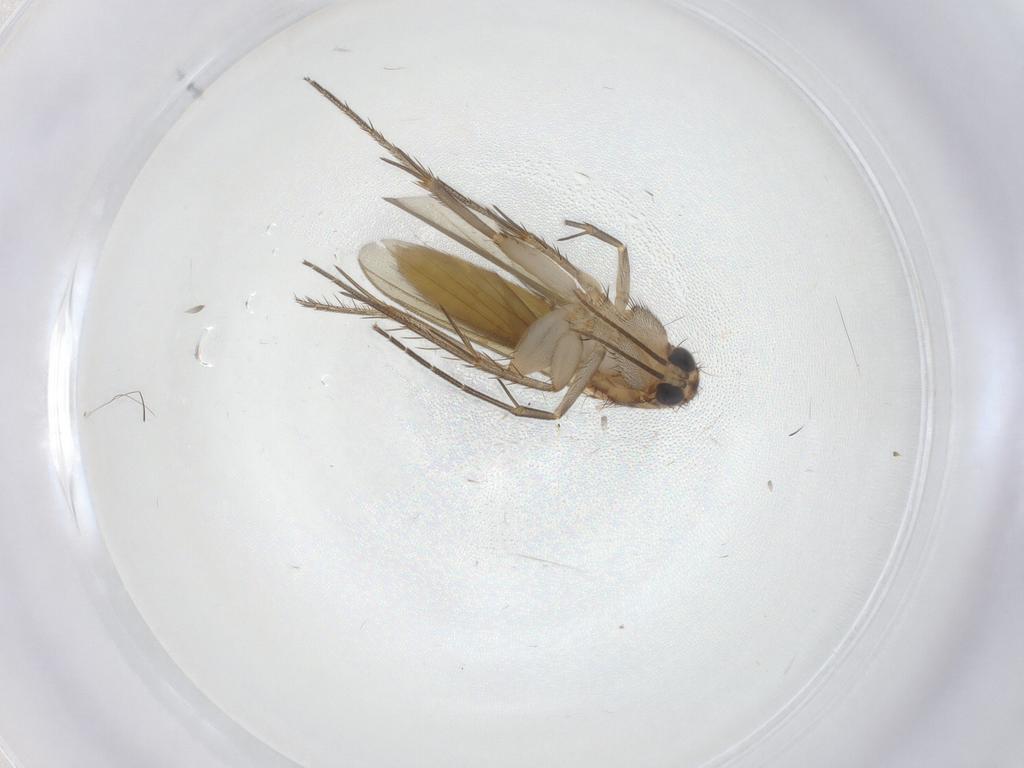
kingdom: Animalia
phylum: Arthropoda
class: Insecta
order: Diptera
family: Mycetophilidae
